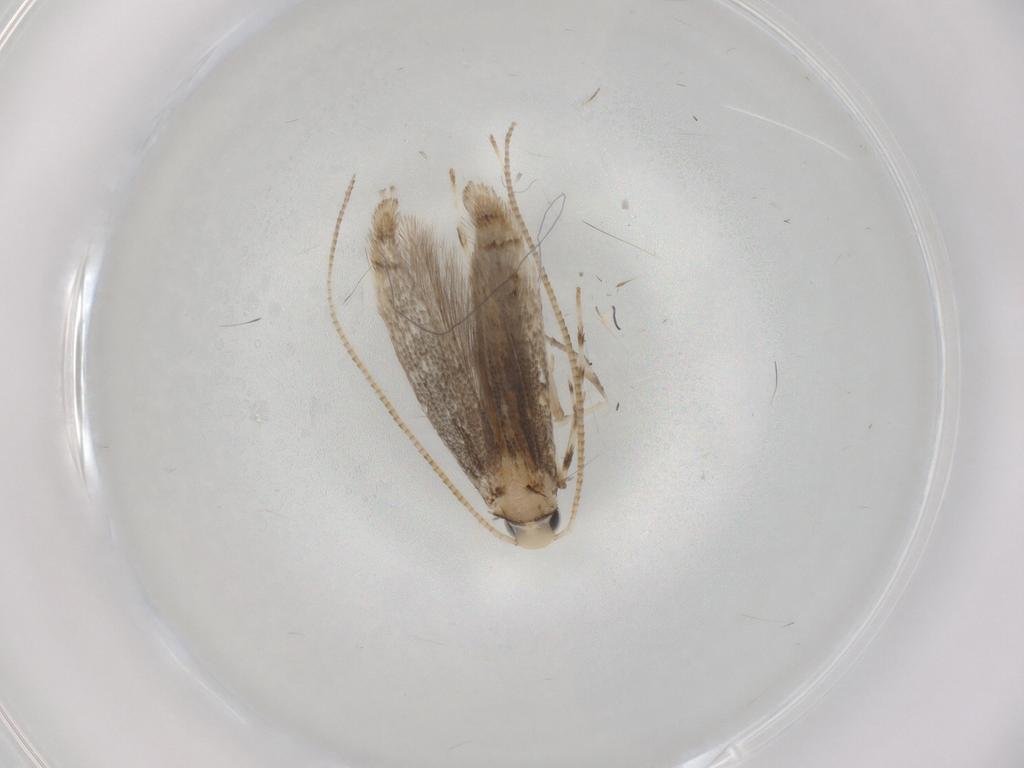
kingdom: Animalia
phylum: Arthropoda
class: Insecta
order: Lepidoptera
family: Gracillariidae
